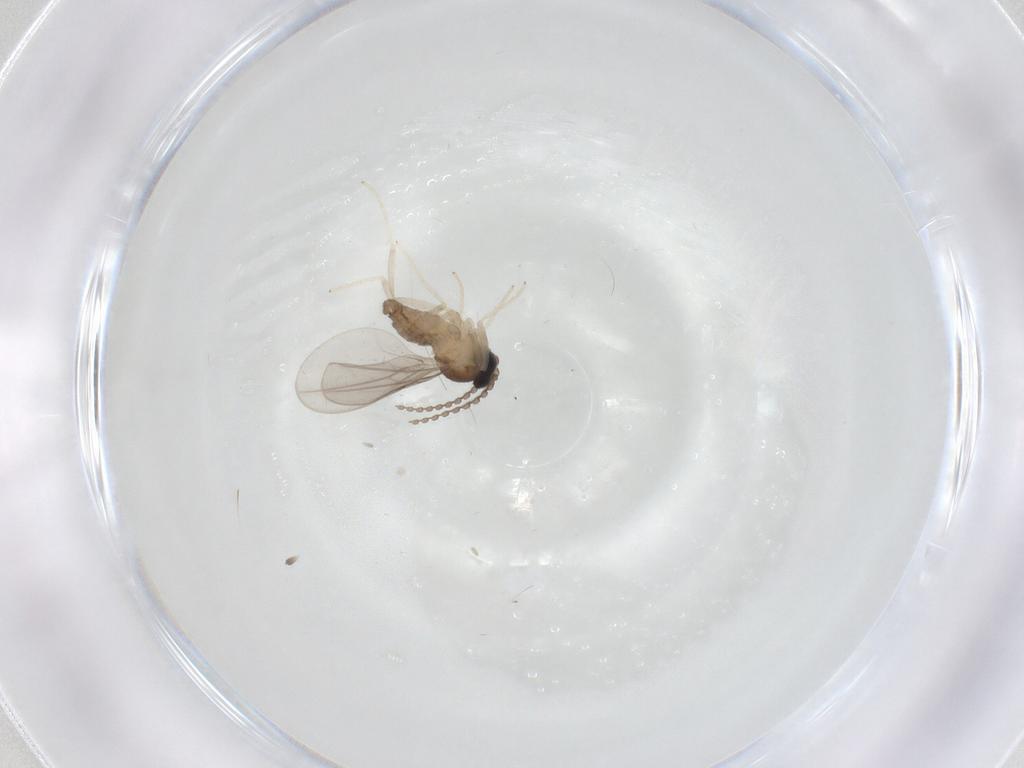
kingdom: Animalia
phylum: Arthropoda
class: Insecta
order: Diptera
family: Cecidomyiidae
